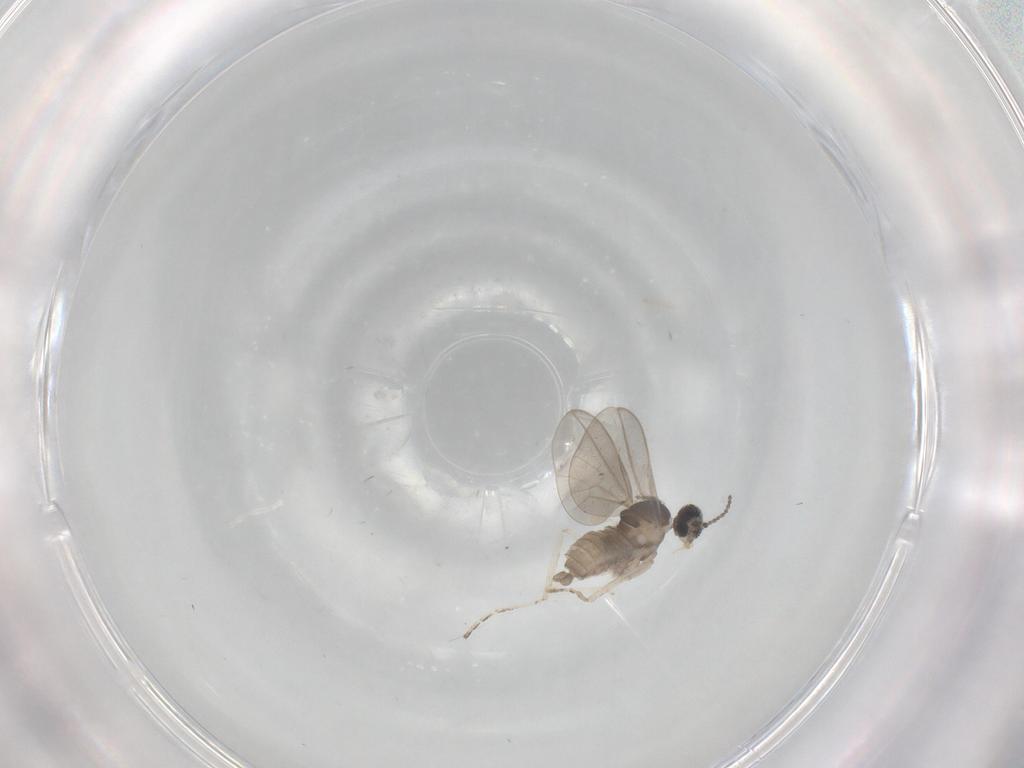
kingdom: Animalia
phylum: Arthropoda
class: Insecta
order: Diptera
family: Cecidomyiidae
